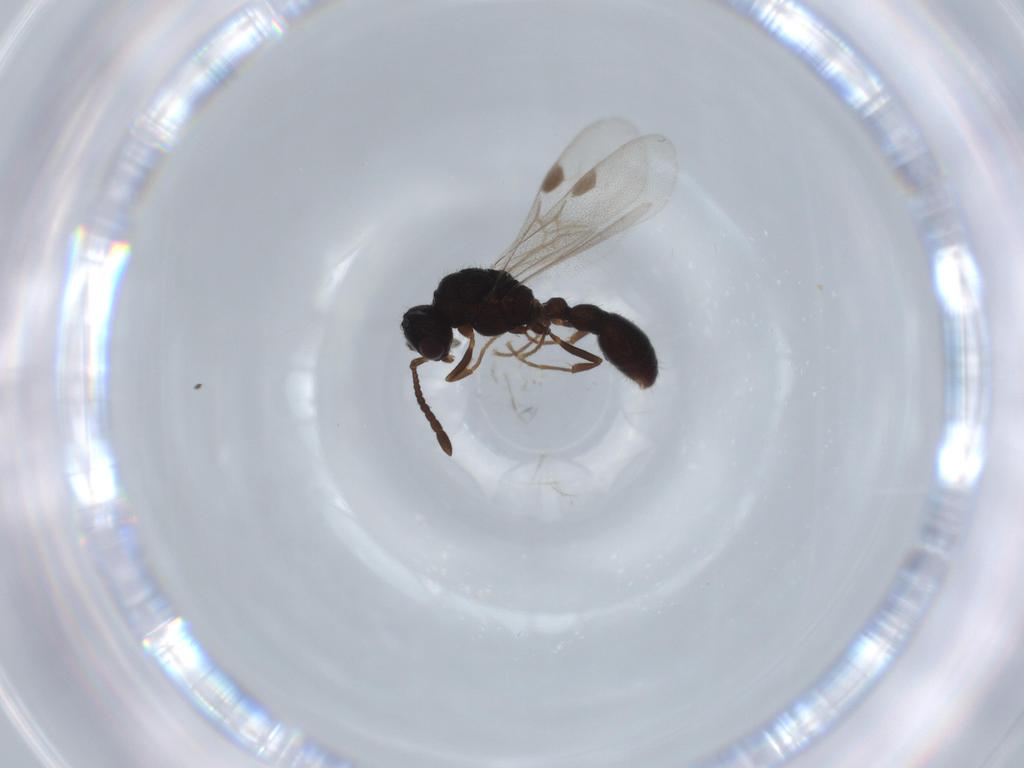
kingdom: Animalia
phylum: Arthropoda
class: Insecta
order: Hymenoptera
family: Formicidae
